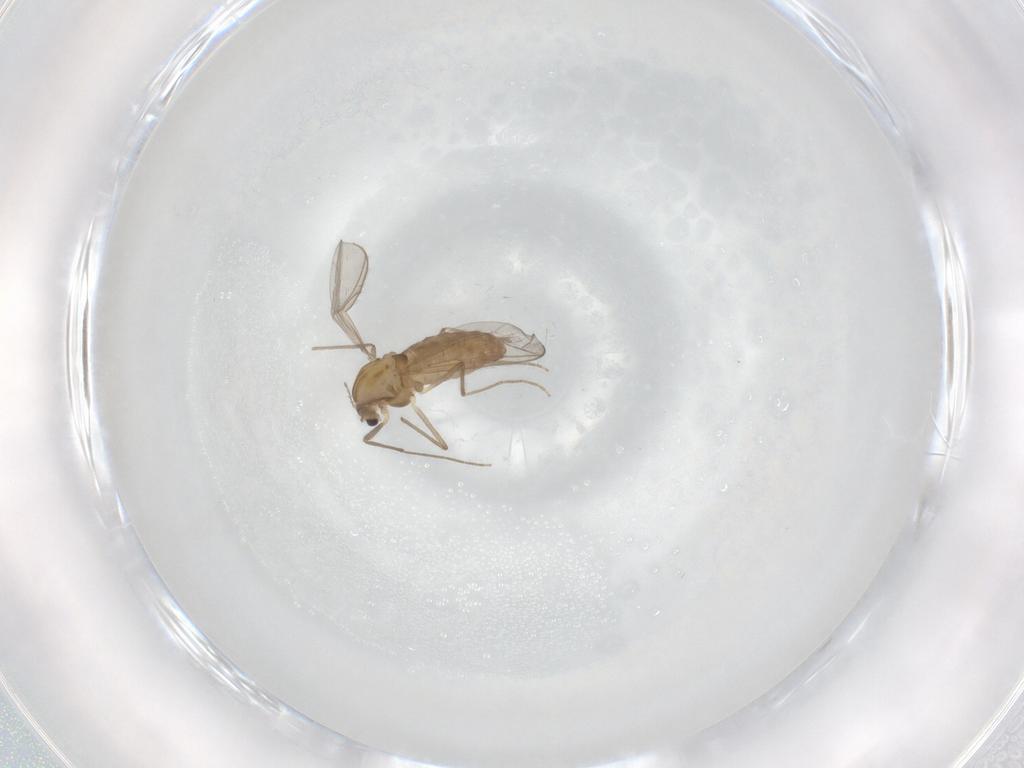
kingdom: Animalia
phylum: Arthropoda
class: Insecta
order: Diptera
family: Chironomidae
